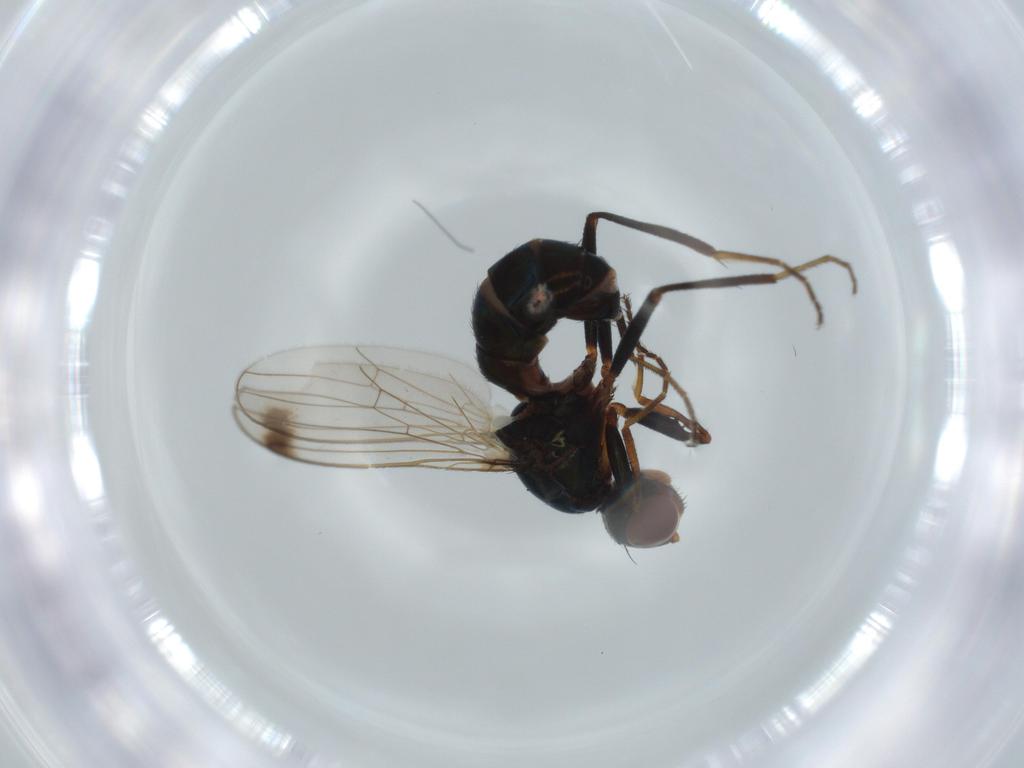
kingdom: Animalia
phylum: Arthropoda
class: Insecta
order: Diptera
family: Sepsidae
